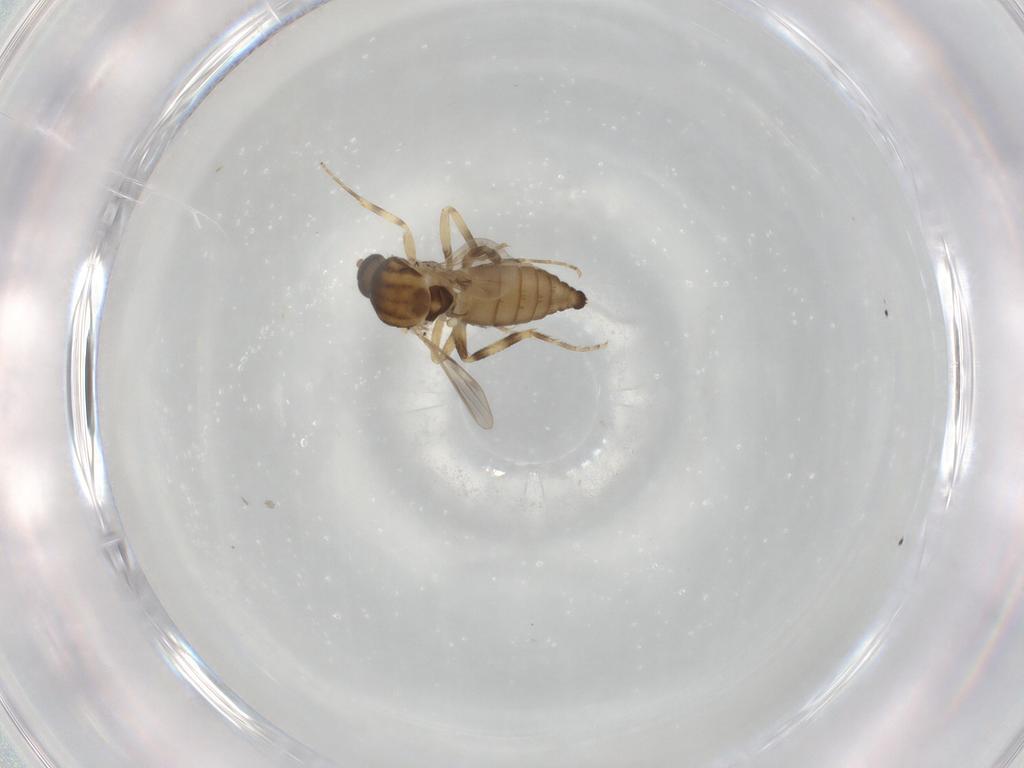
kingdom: Animalia
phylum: Arthropoda
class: Insecta
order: Diptera
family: Ceratopogonidae
